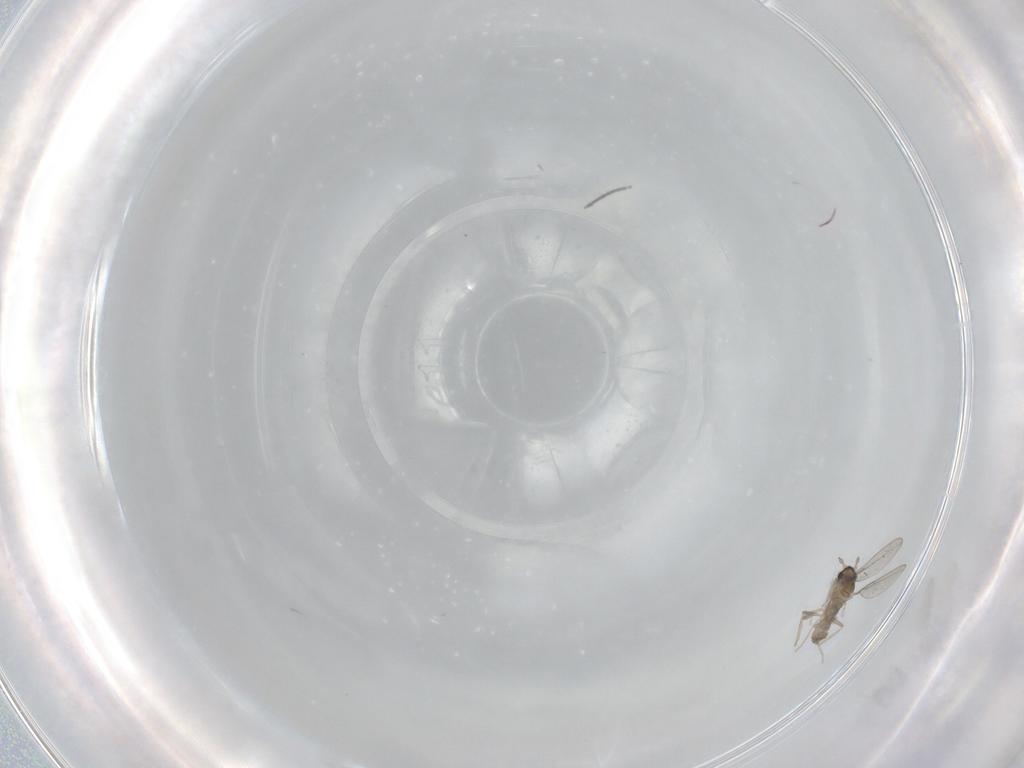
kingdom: Animalia
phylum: Arthropoda
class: Insecta
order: Diptera
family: Chironomidae
